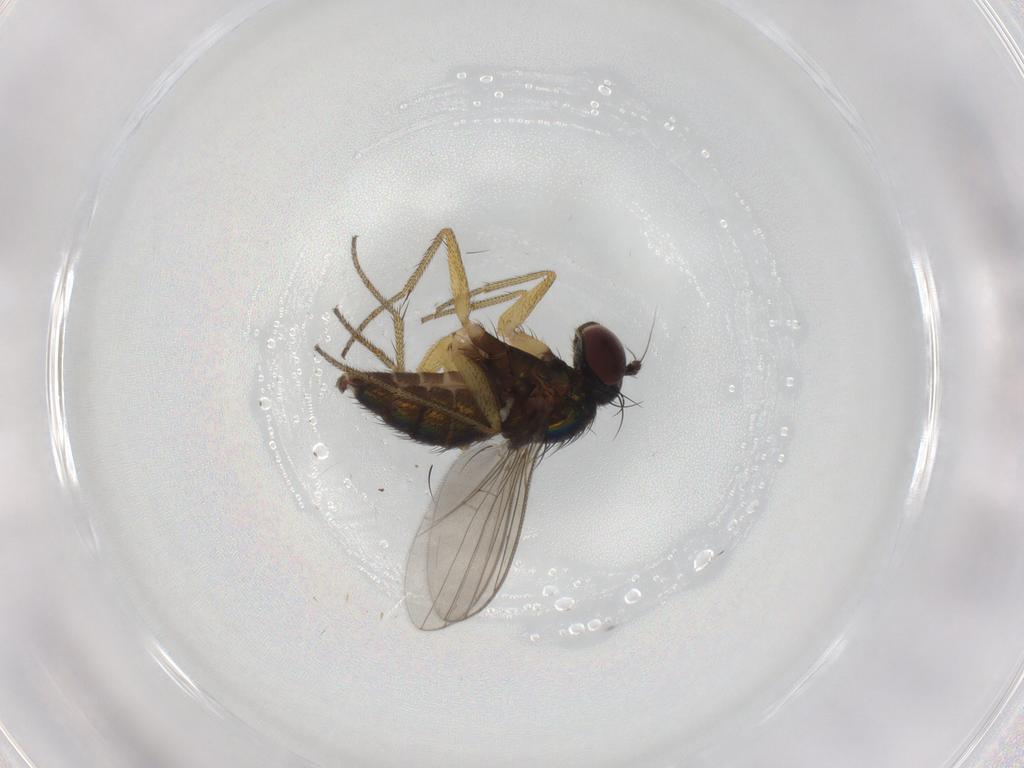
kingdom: Animalia
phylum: Arthropoda
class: Insecta
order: Diptera
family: Dolichopodidae
